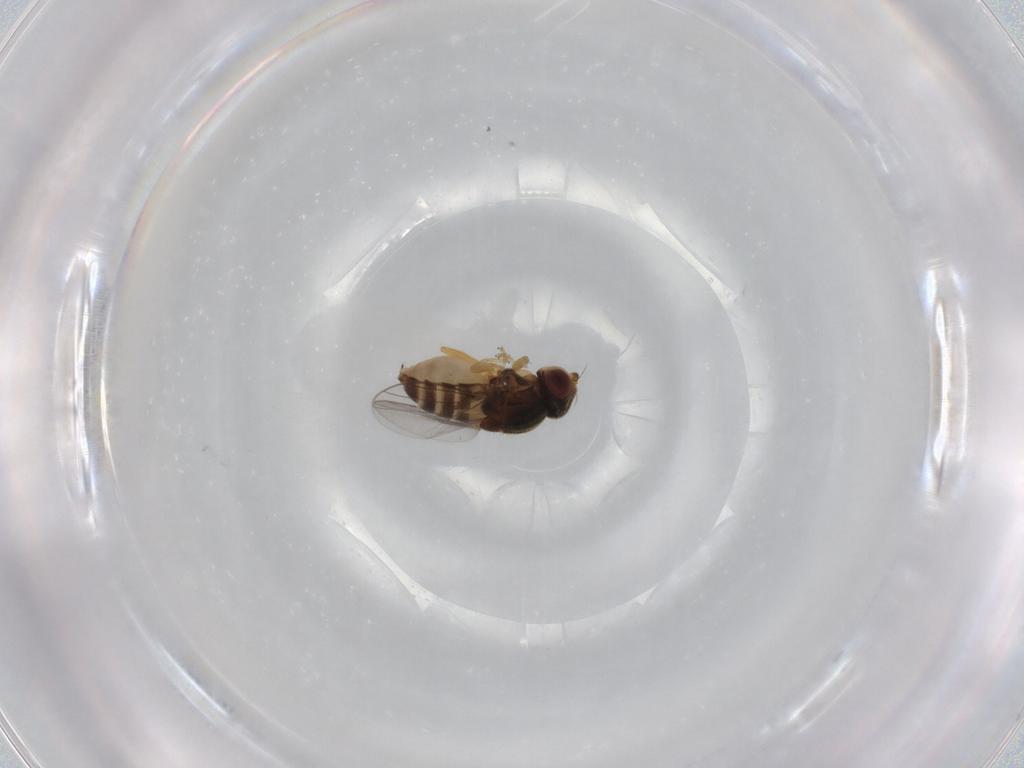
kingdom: Animalia
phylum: Arthropoda
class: Insecta
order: Diptera
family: Chloropidae
